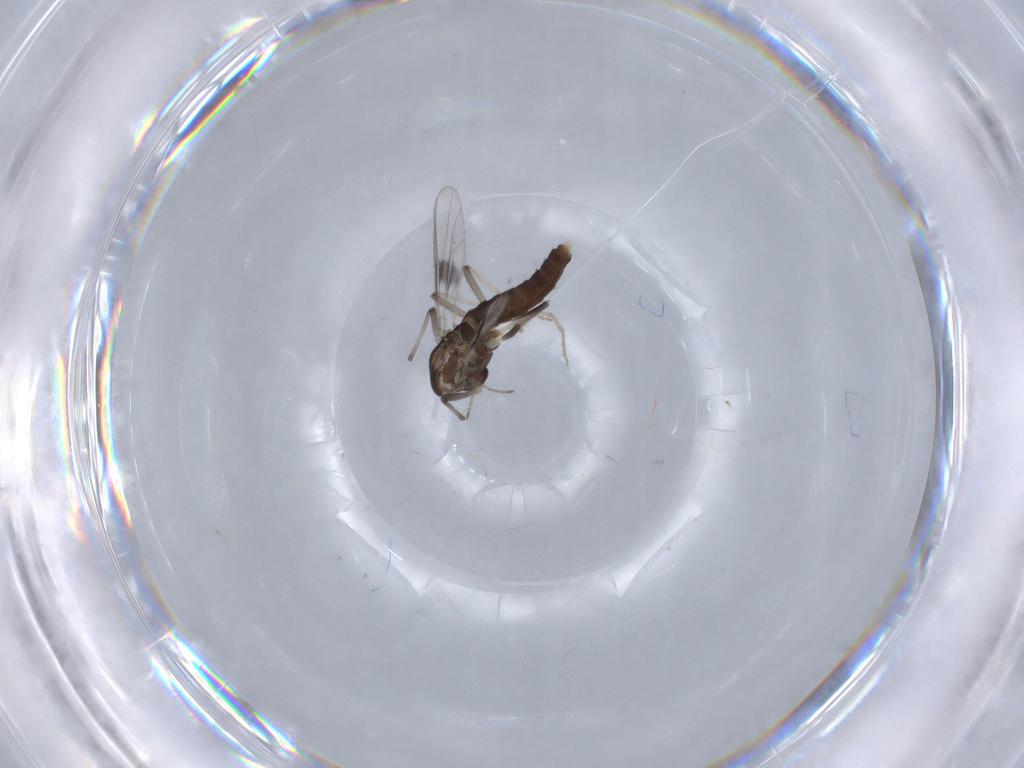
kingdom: Animalia
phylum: Arthropoda
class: Insecta
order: Diptera
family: Chironomidae
